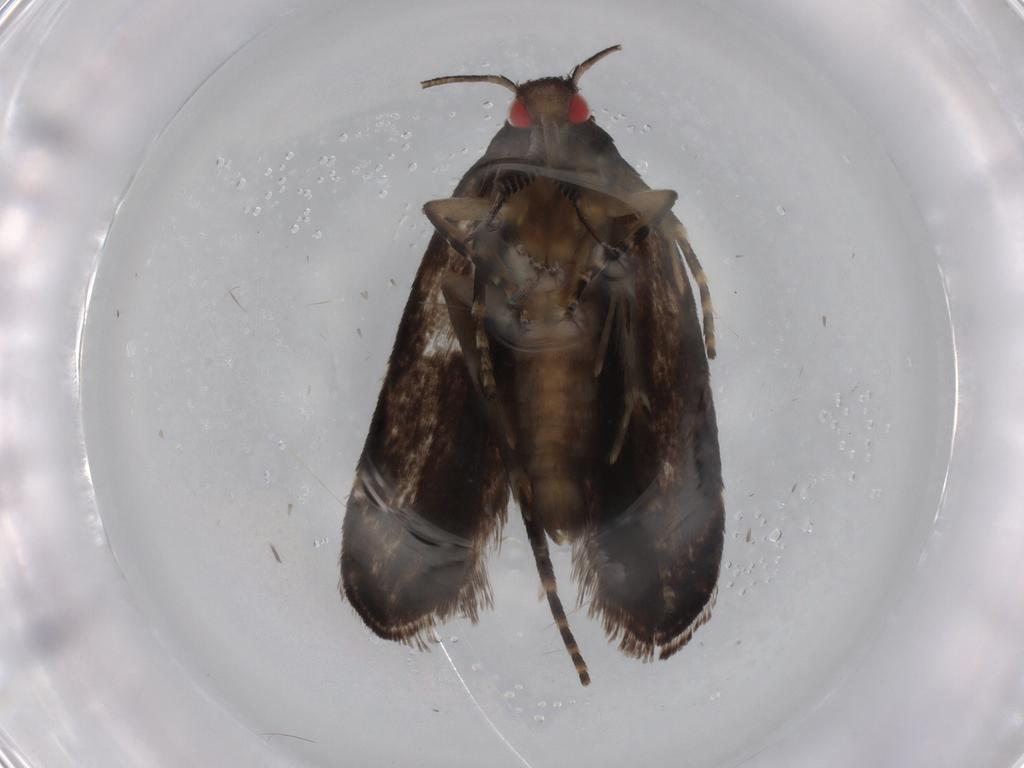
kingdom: Animalia
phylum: Arthropoda
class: Insecta
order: Lepidoptera
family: Gelechiidae
